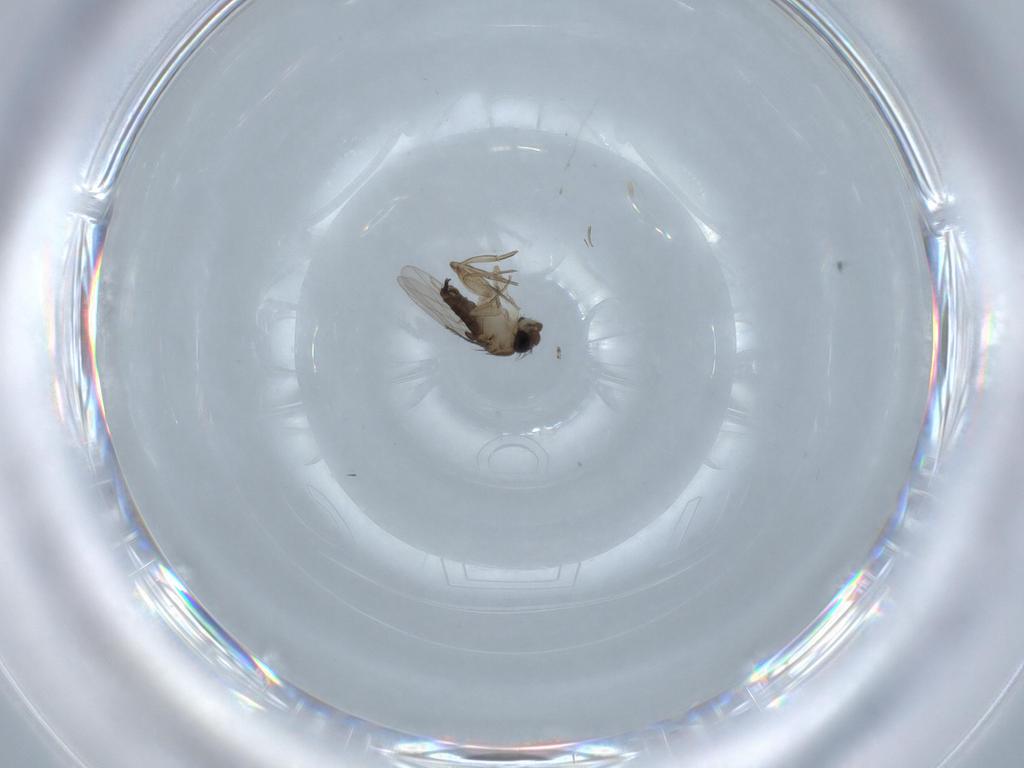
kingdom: Animalia
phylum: Arthropoda
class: Insecta
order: Diptera
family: Phoridae
